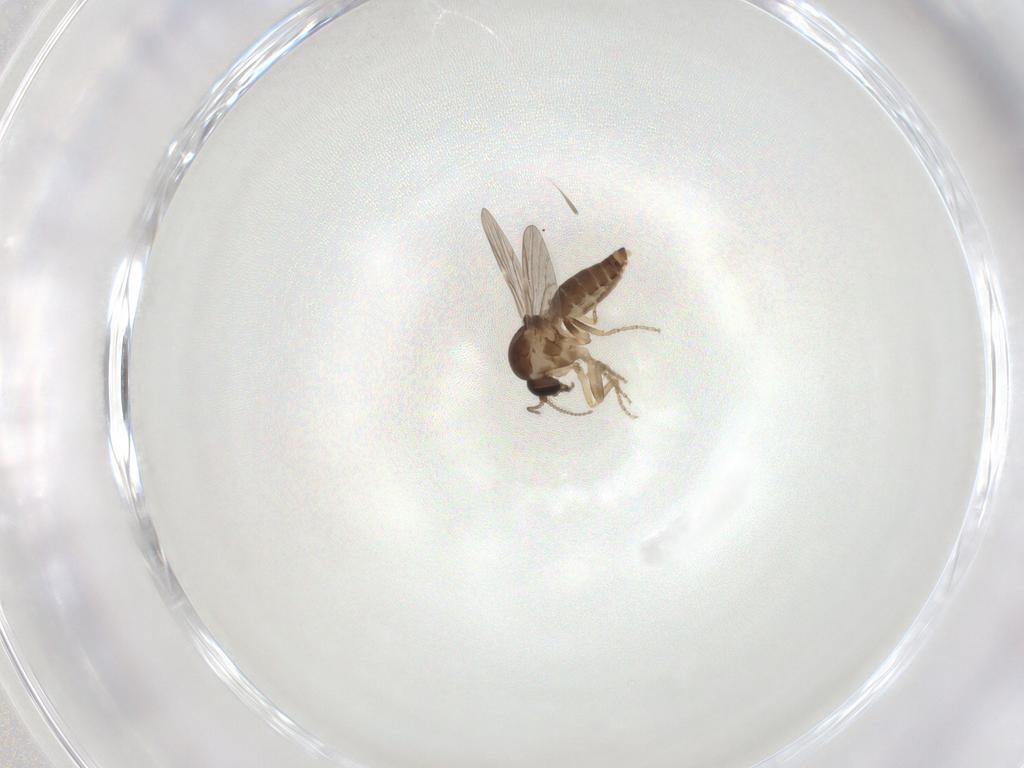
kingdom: Animalia
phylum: Arthropoda
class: Insecta
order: Diptera
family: Ceratopogonidae
